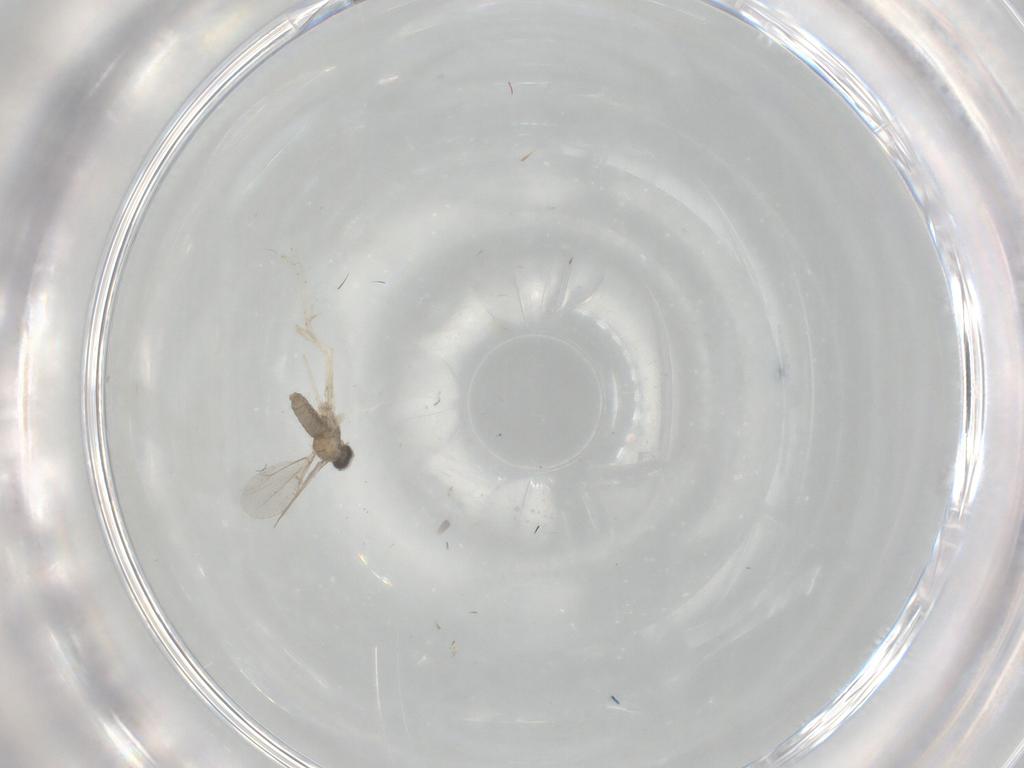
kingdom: Animalia
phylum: Arthropoda
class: Insecta
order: Diptera
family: Cecidomyiidae
